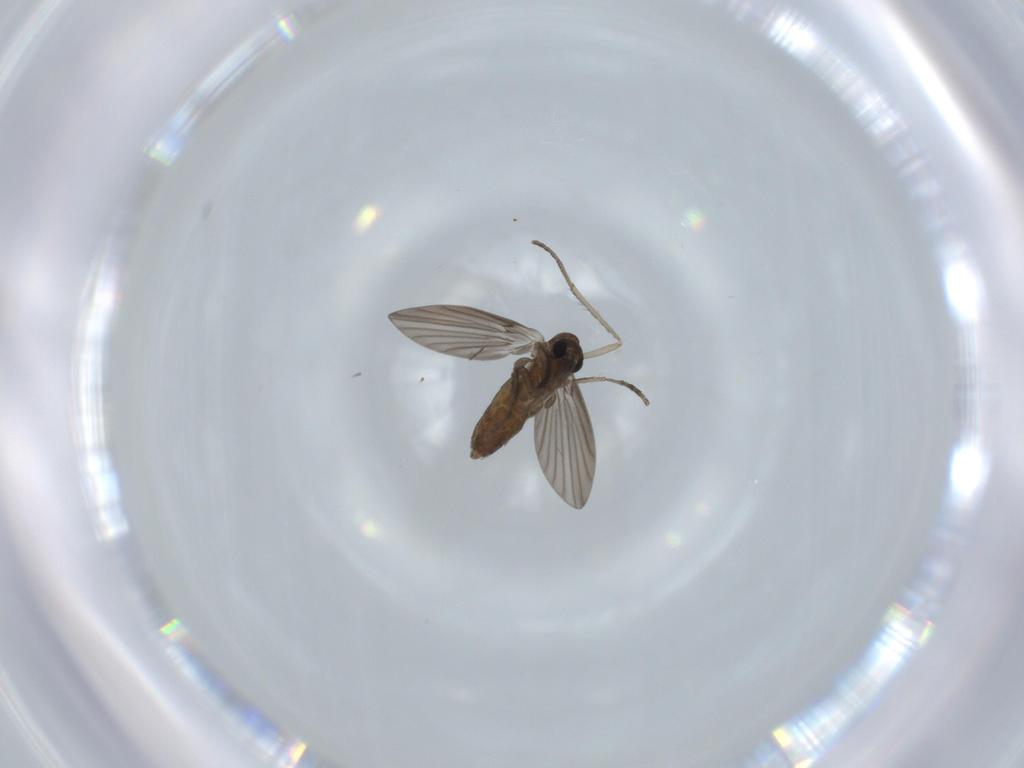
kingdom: Animalia
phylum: Arthropoda
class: Insecta
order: Diptera
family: Psychodidae
